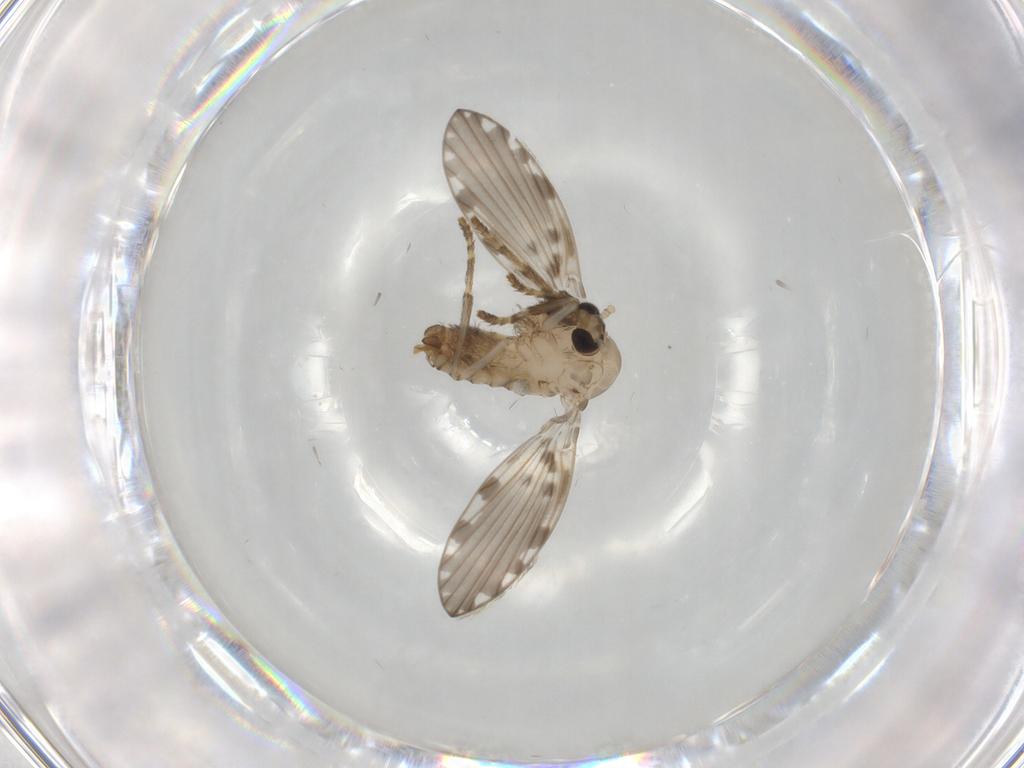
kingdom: Animalia
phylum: Arthropoda
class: Insecta
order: Diptera
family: Psychodidae
